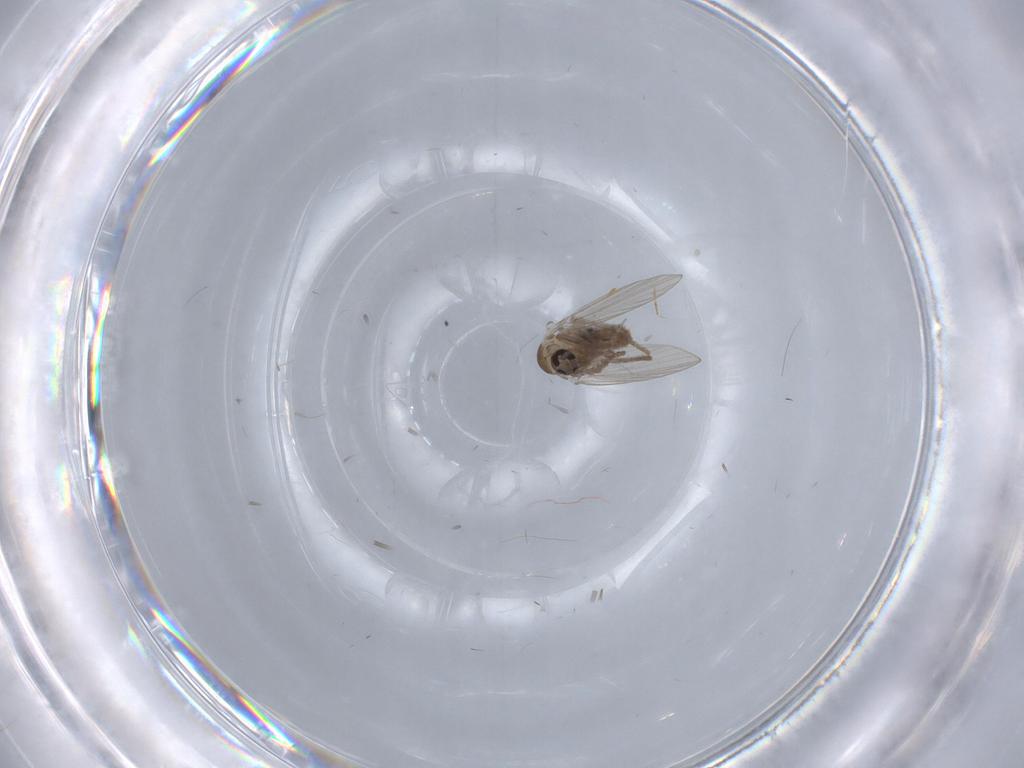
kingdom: Animalia
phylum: Arthropoda
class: Insecta
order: Diptera
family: Psychodidae
